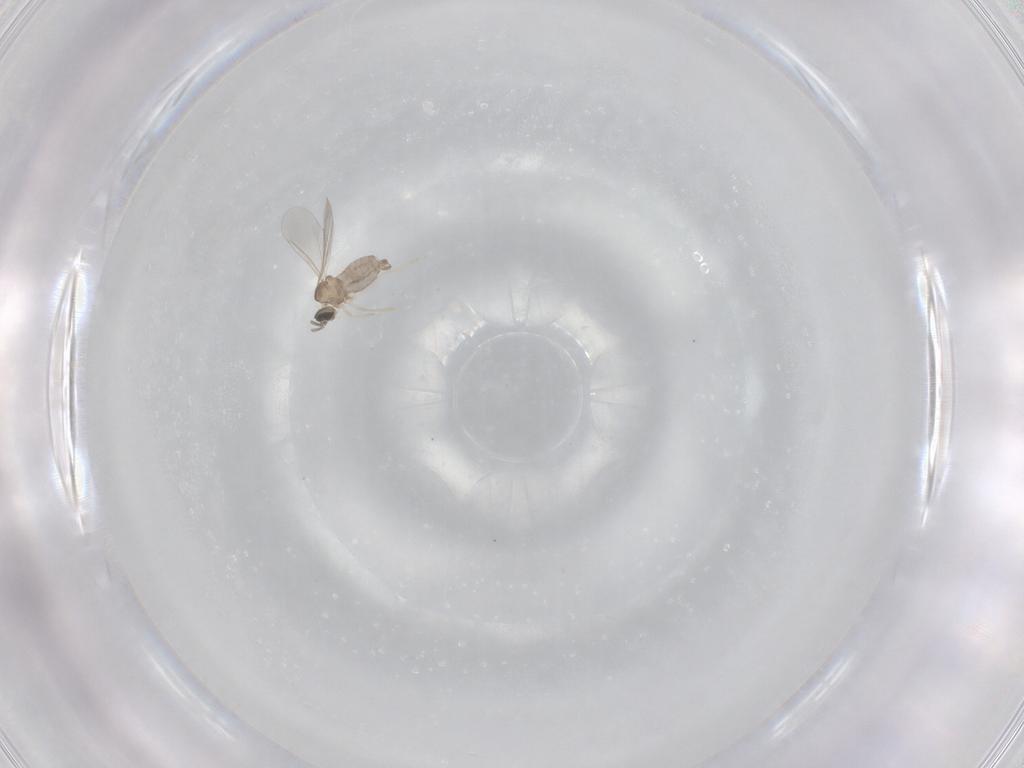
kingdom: Animalia
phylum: Arthropoda
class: Insecta
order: Diptera
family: Cecidomyiidae
